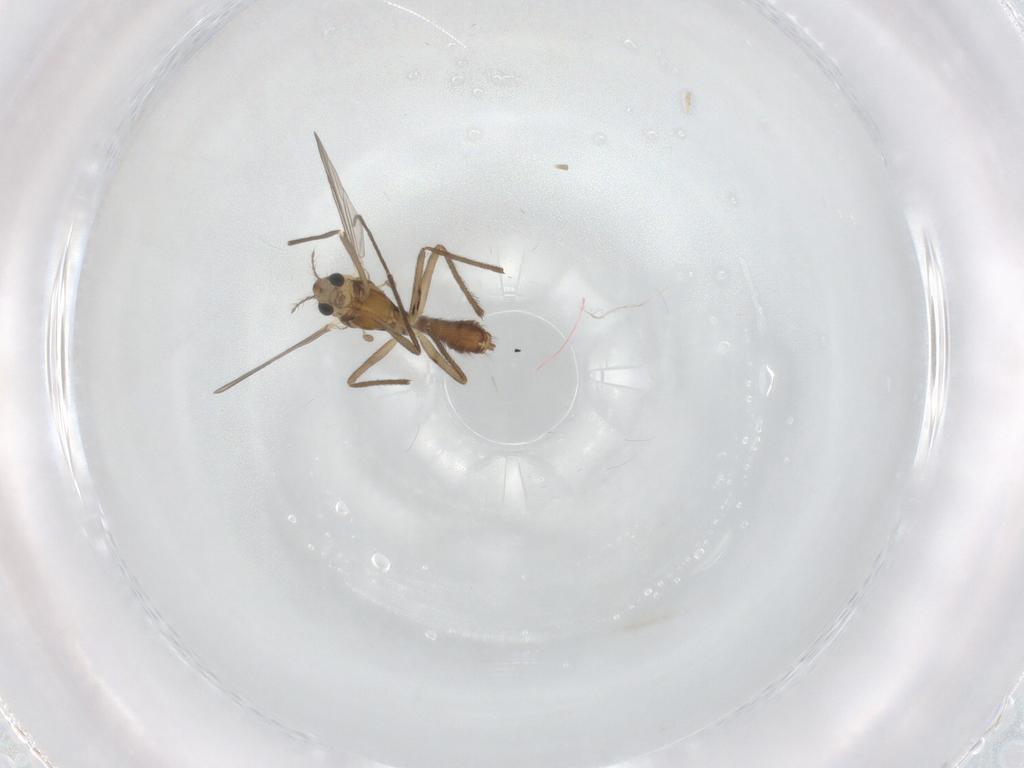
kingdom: Animalia
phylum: Arthropoda
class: Insecta
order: Diptera
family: Chironomidae
